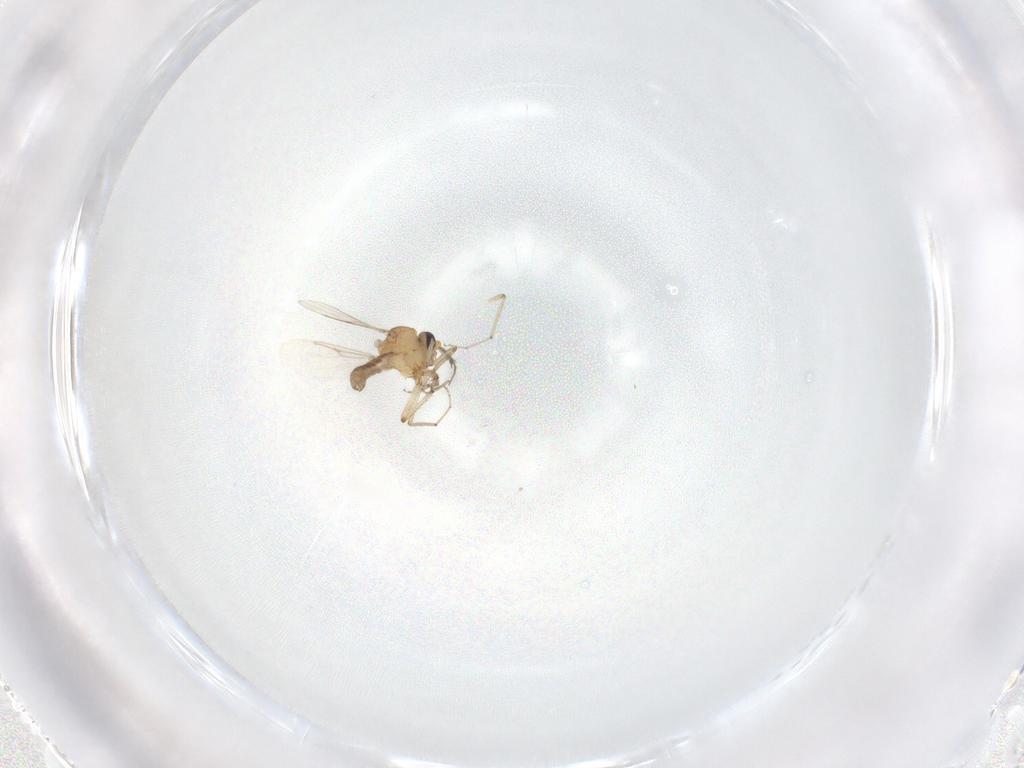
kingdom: Animalia
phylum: Arthropoda
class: Insecta
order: Diptera
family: Ceratopogonidae
